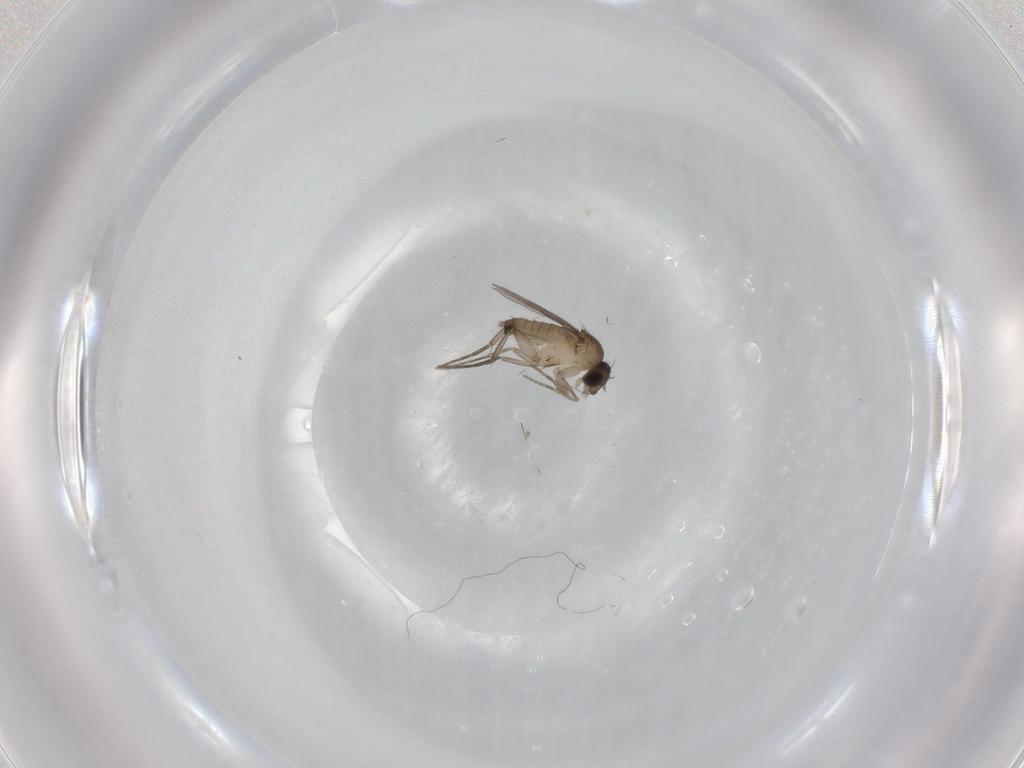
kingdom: Animalia
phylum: Arthropoda
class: Insecta
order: Diptera
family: Phoridae
